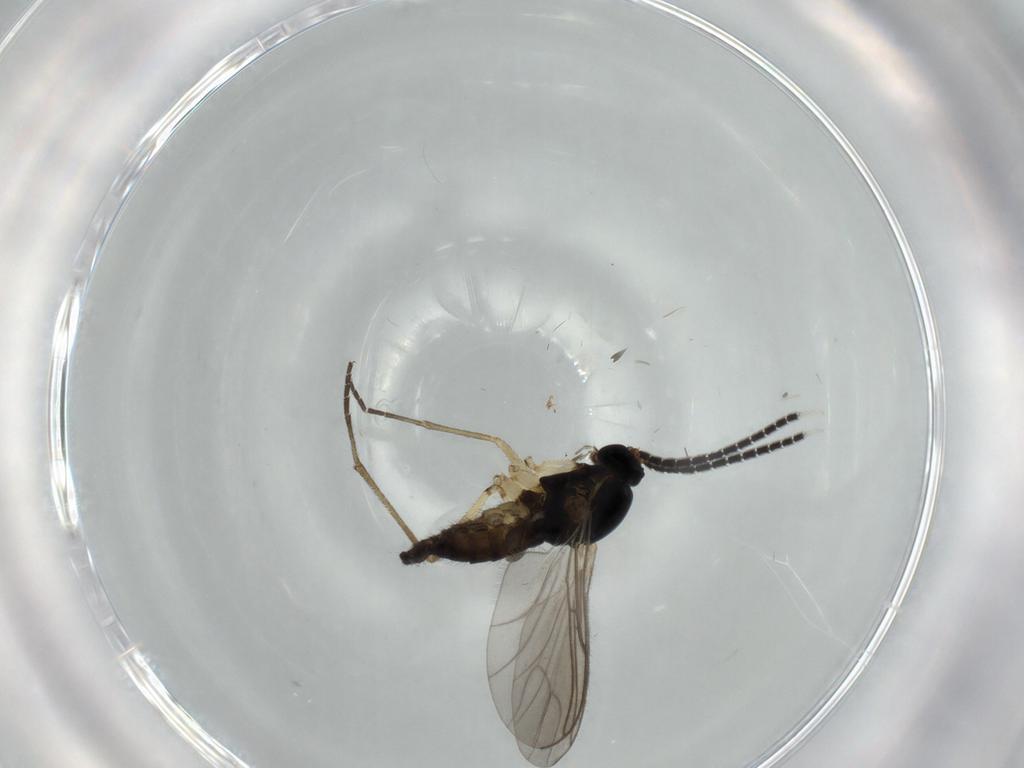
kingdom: Animalia
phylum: Arthropoda
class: Insecta
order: Diptera
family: Sciaridae
